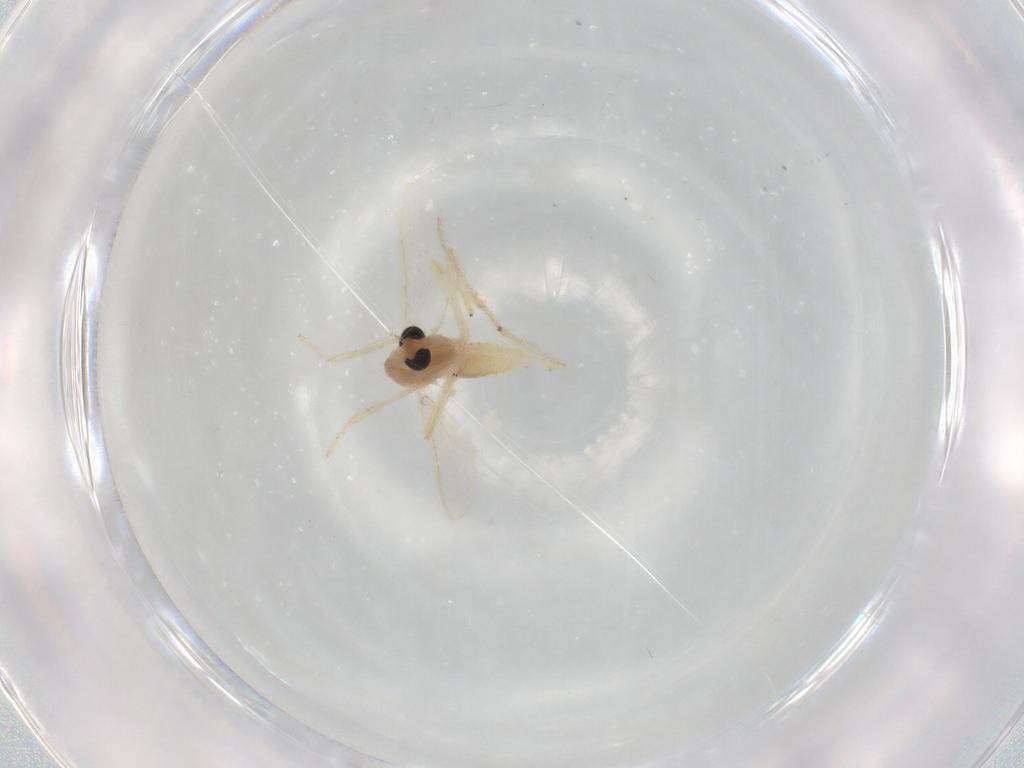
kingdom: Animalia
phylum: Arthropoda
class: Insecta
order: Diptera
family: Chironomidae
